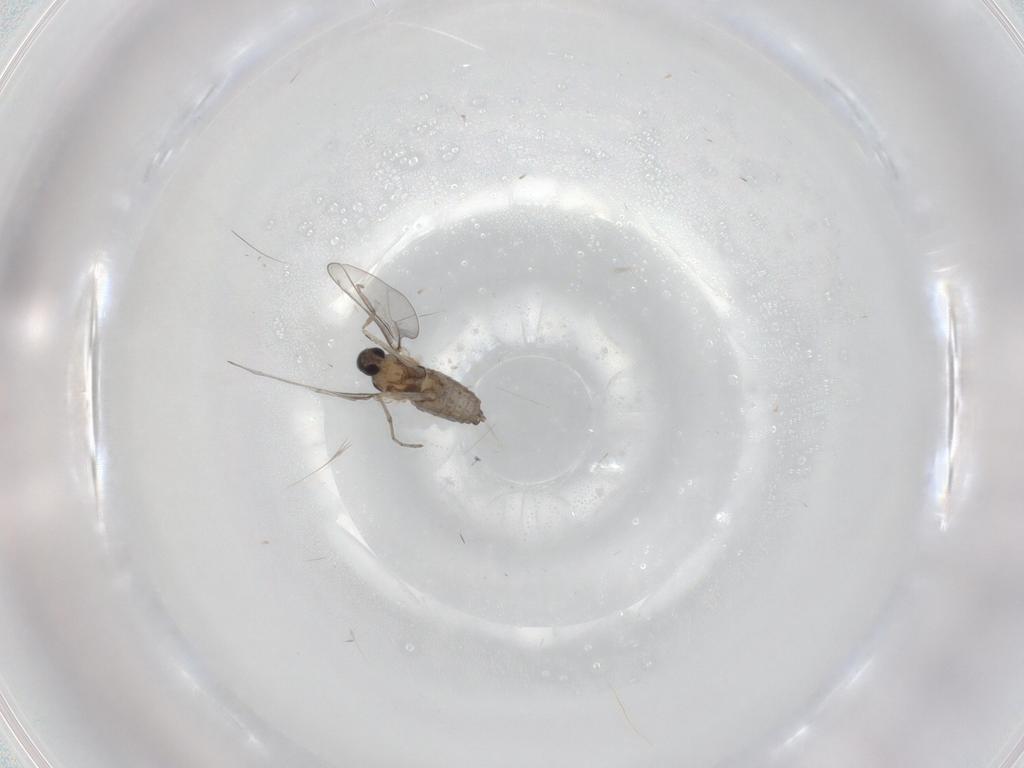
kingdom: Animalia
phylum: Arthropoda
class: Insecta
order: Diptera
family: Cecidomyiidae
